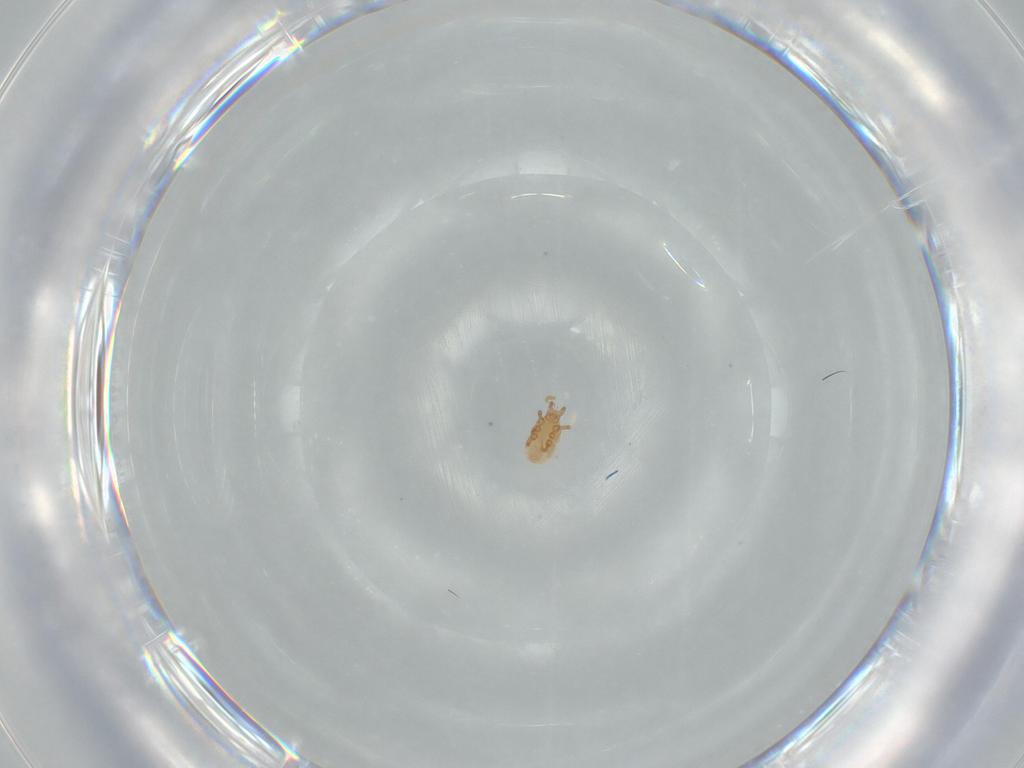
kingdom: Animalia
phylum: Arthropoda
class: Arachnida
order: Mesostigmata
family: Dinychidae
